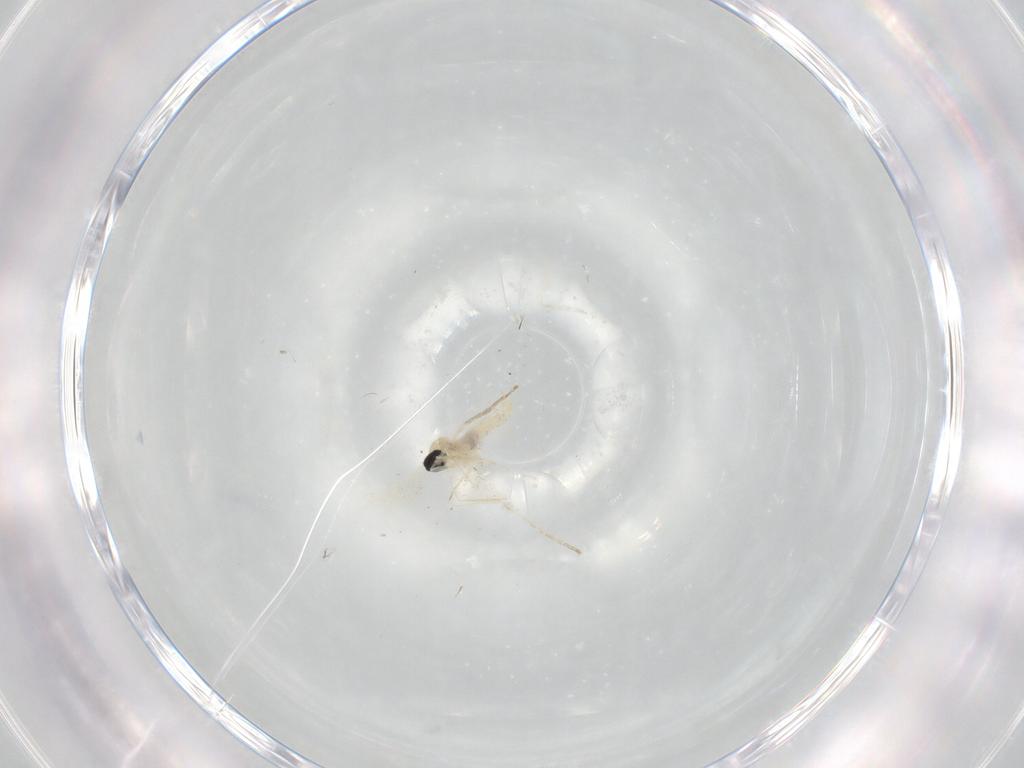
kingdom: Animalia
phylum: Arthropoda
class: Insecta
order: Diptera
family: Cecidomyiidae
